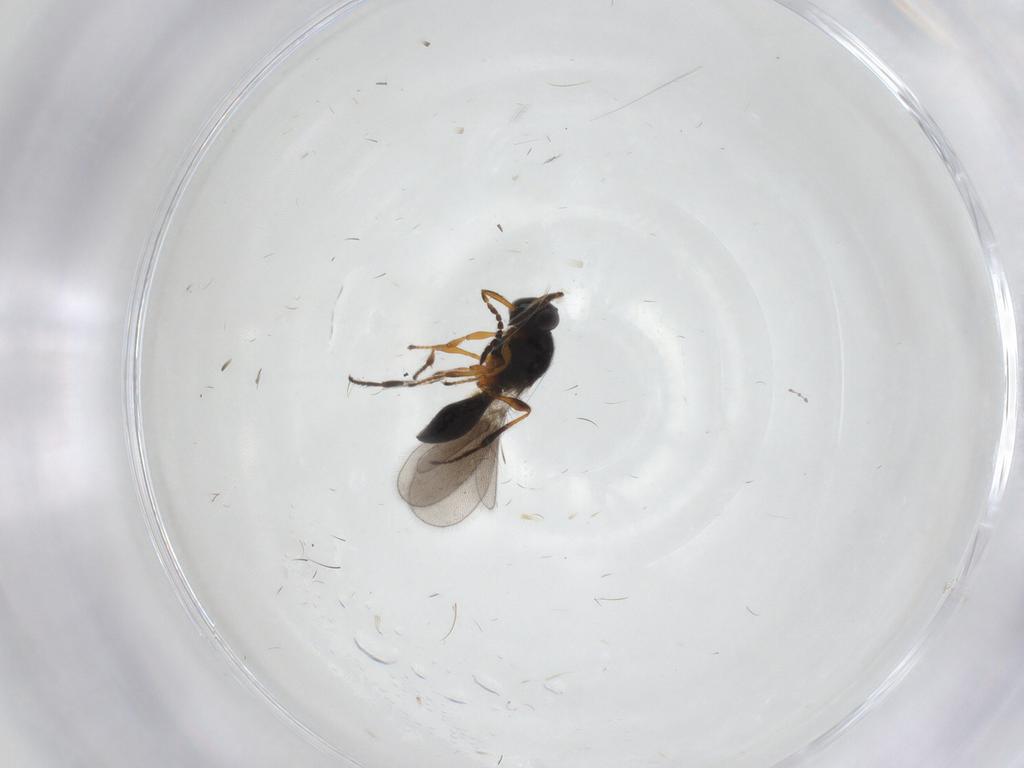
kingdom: Animalia
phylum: Arthropoda
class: Insecta
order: Hymenoptera
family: Platygastridae
